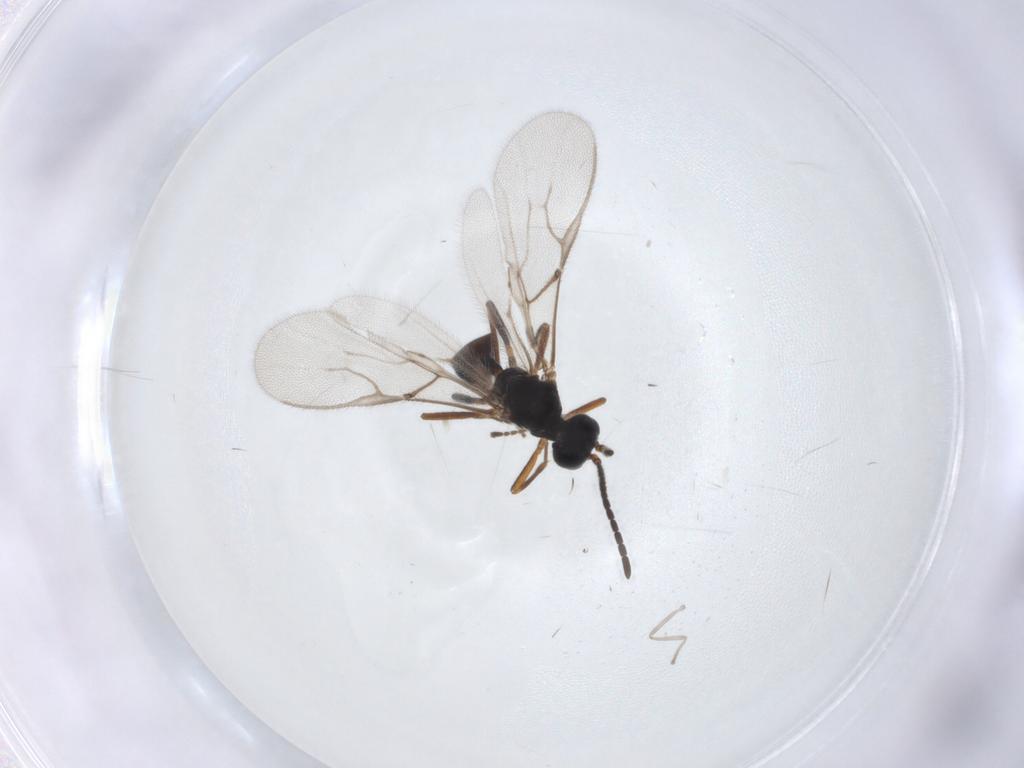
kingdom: Animalia
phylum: Arthropoda
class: Insecta
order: Hymenoptera
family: Braconidae
